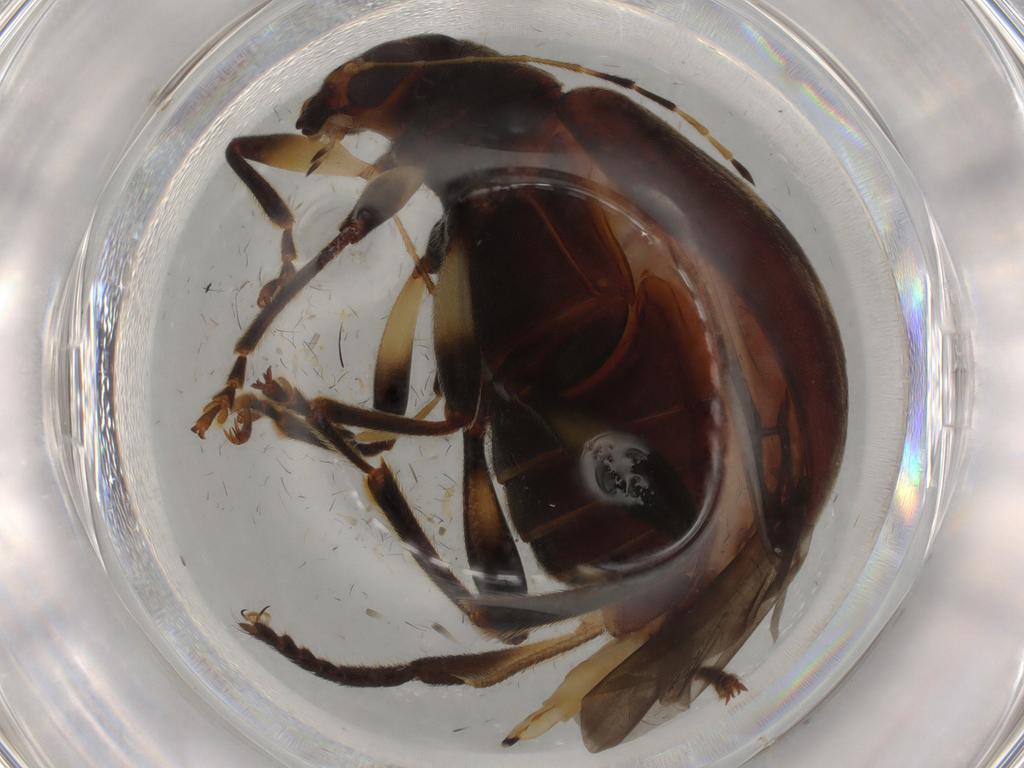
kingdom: Animalia
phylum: Arthropoda
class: Insecta
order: Coleoptera
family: Chrysomelidae
